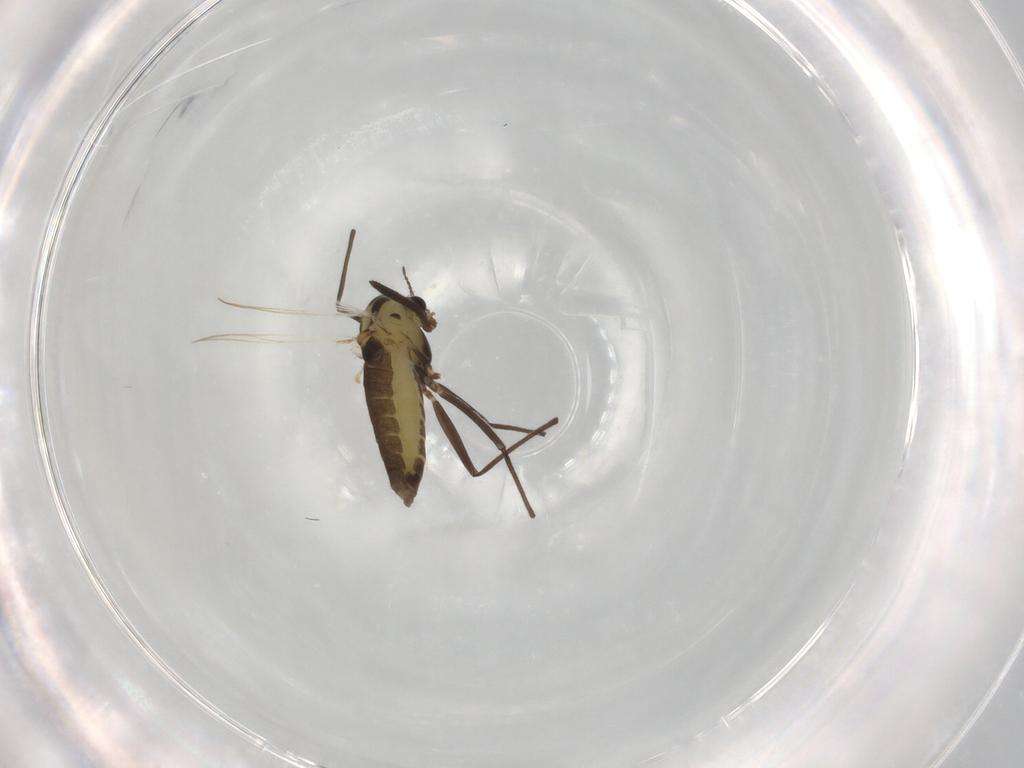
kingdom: Animalia
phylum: Arthropoda
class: Insecta
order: Diptera
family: Chironomidae
